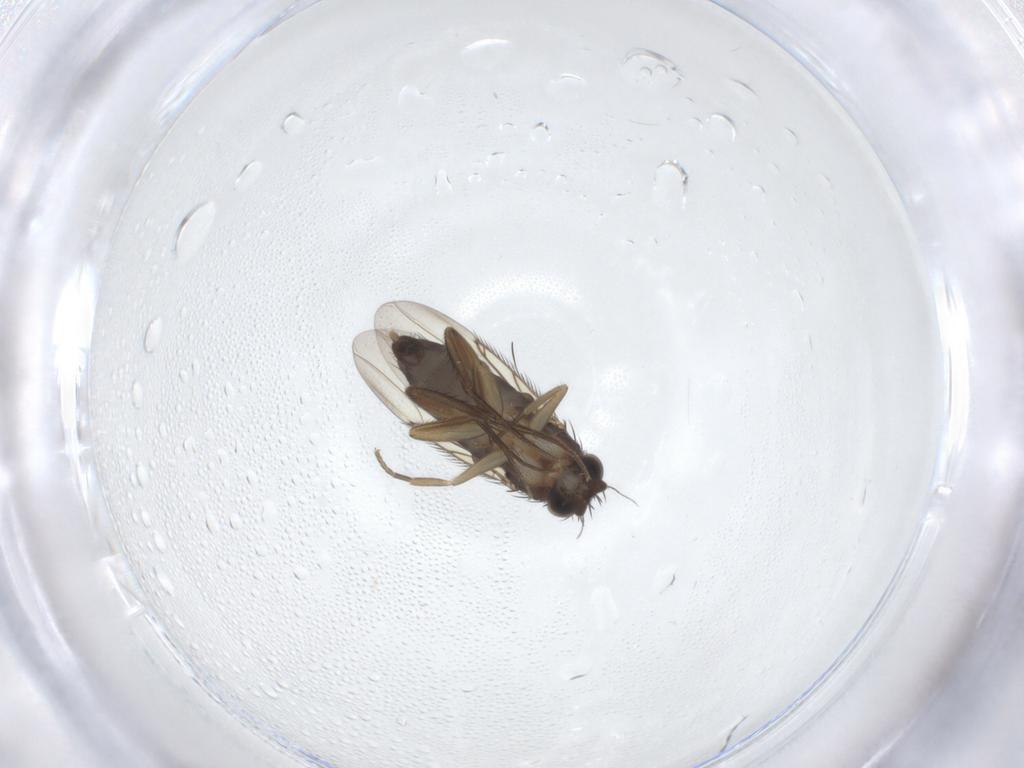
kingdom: Animalia
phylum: Arthropoda
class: Insecta
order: Diptera
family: Phoridae
